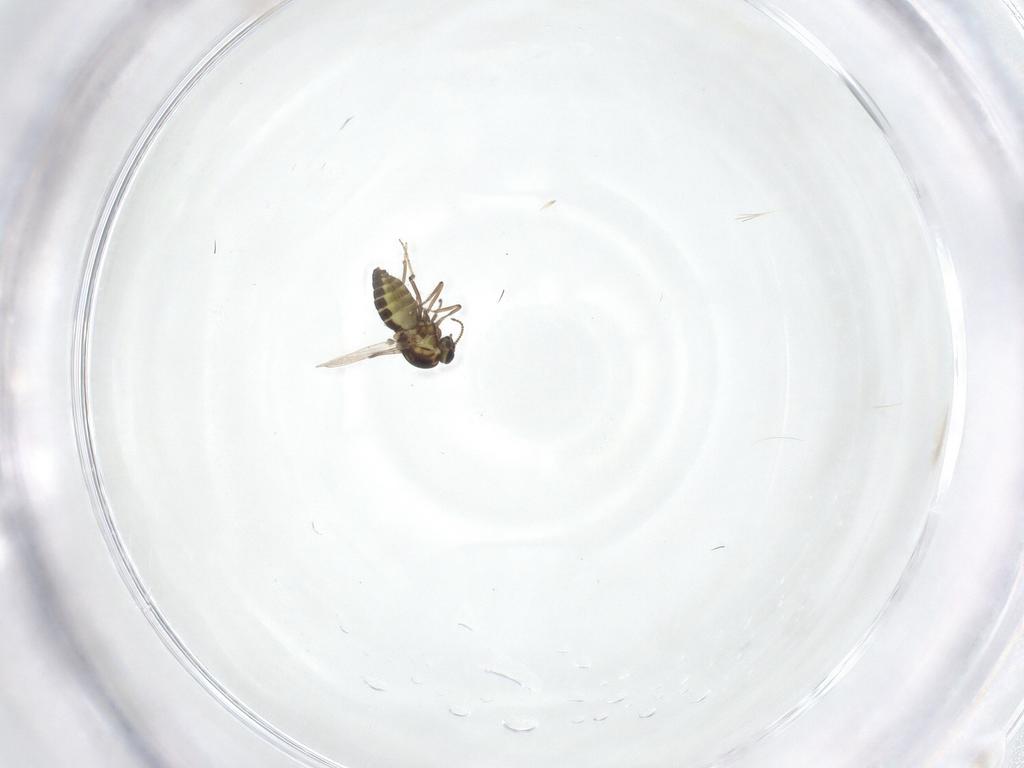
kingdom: Animalia
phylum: Arthropoda
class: Insecta
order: Diptera
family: Ceratopogonidae
